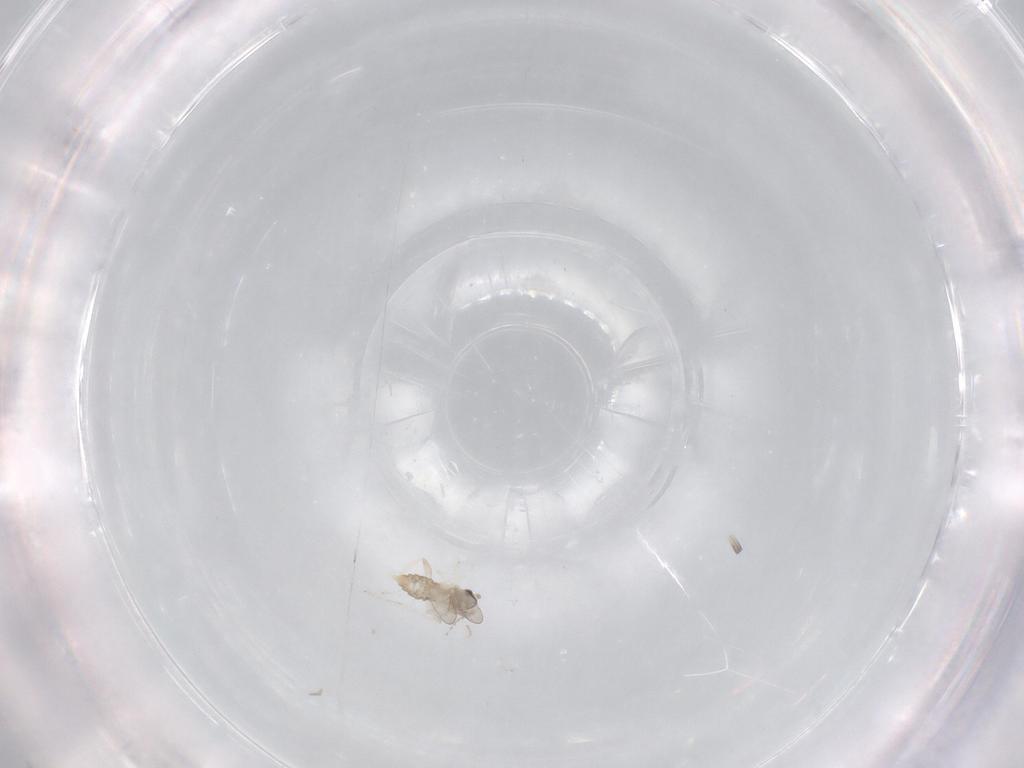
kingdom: Animalia
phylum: Arthropoda
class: Insecta
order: Diptera
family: Cecidomyiidae
